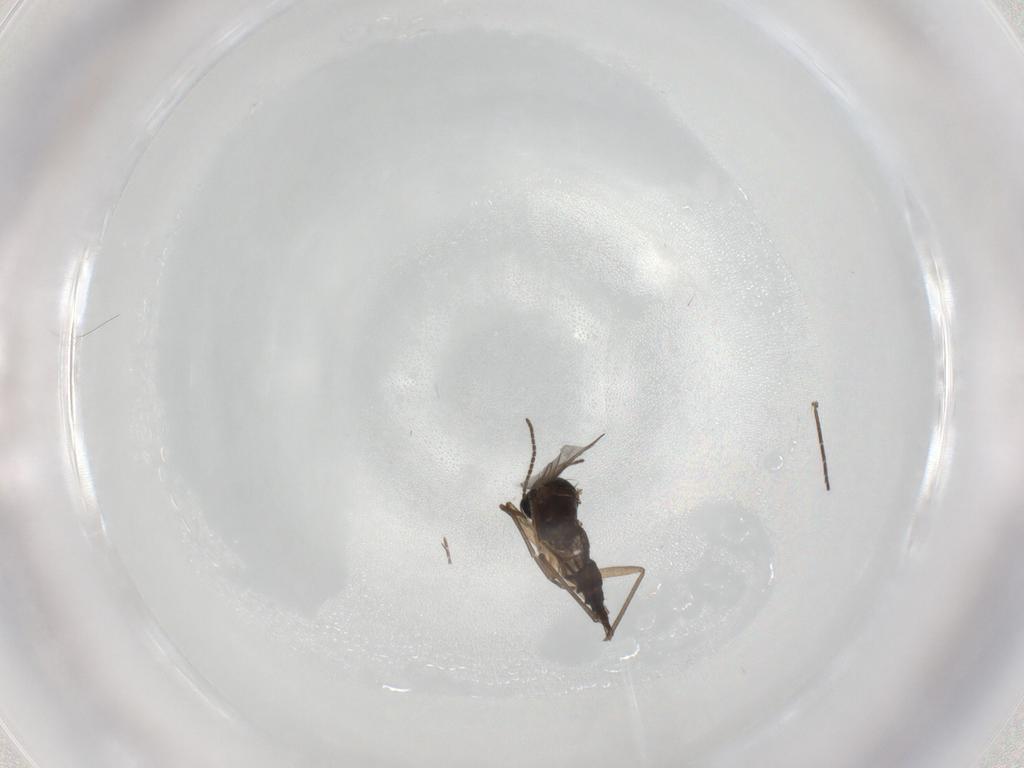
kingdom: Animalia
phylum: Arthropoda
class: Insecta
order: Diptera
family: Sciaridae
